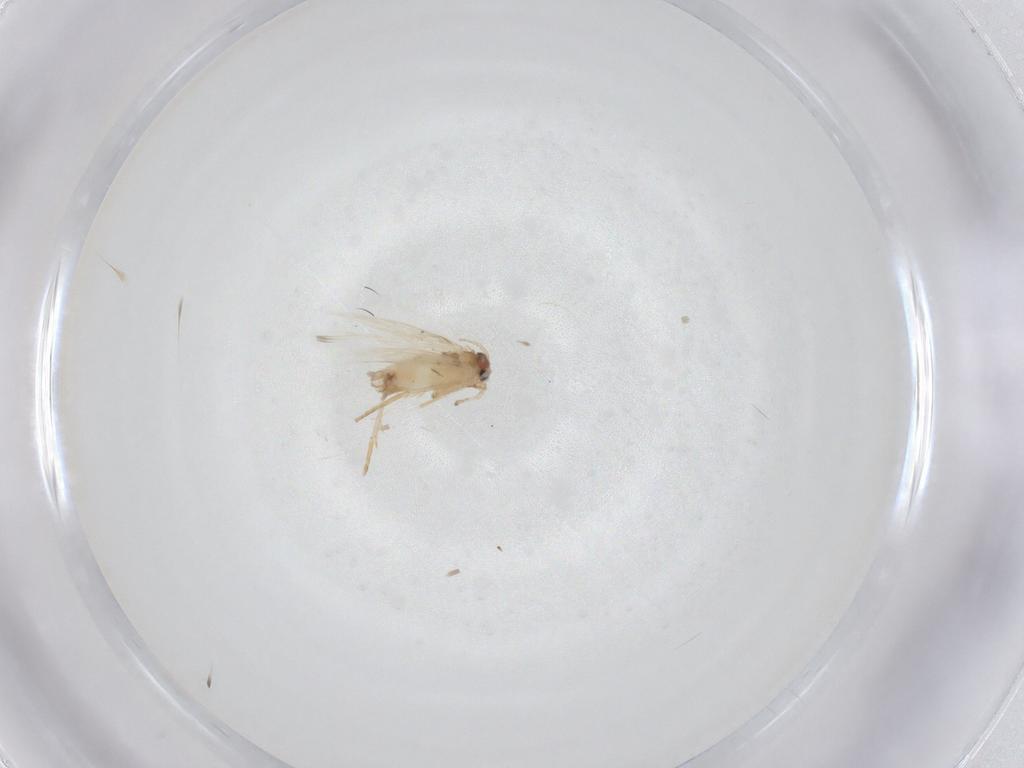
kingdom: Animalia
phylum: Arthropoda
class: Insecta
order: Lepidoptera
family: Nepticulidae
